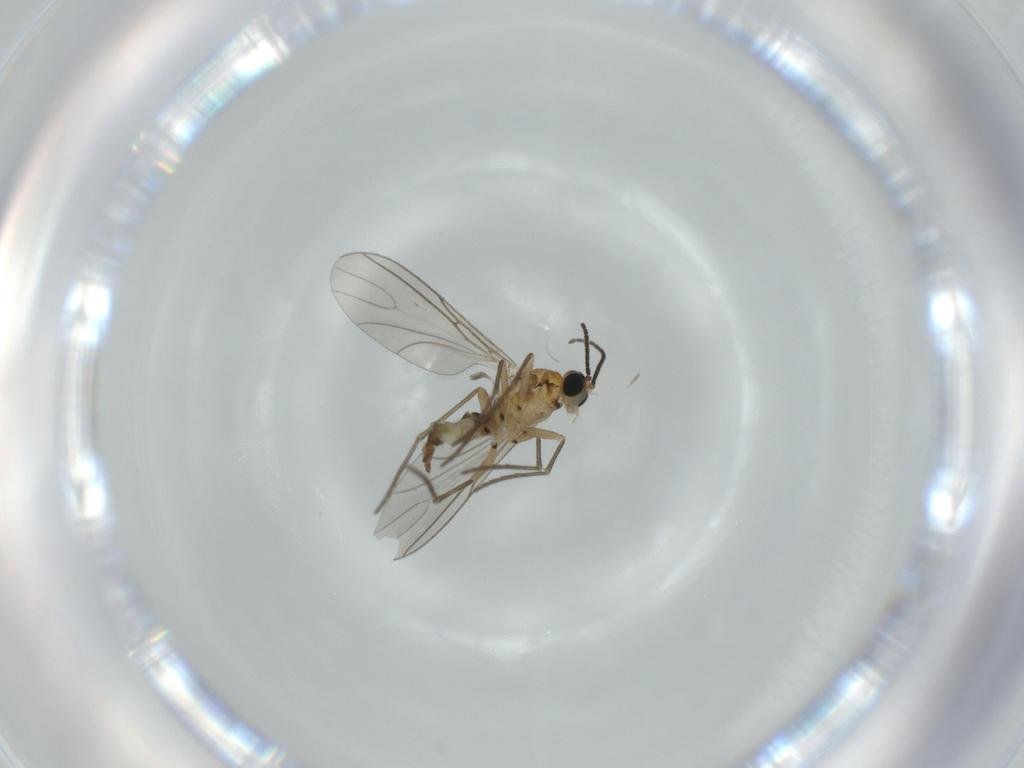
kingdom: Animalia
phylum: Arthropoda
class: Insecta
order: Diptera
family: Sciaridae
